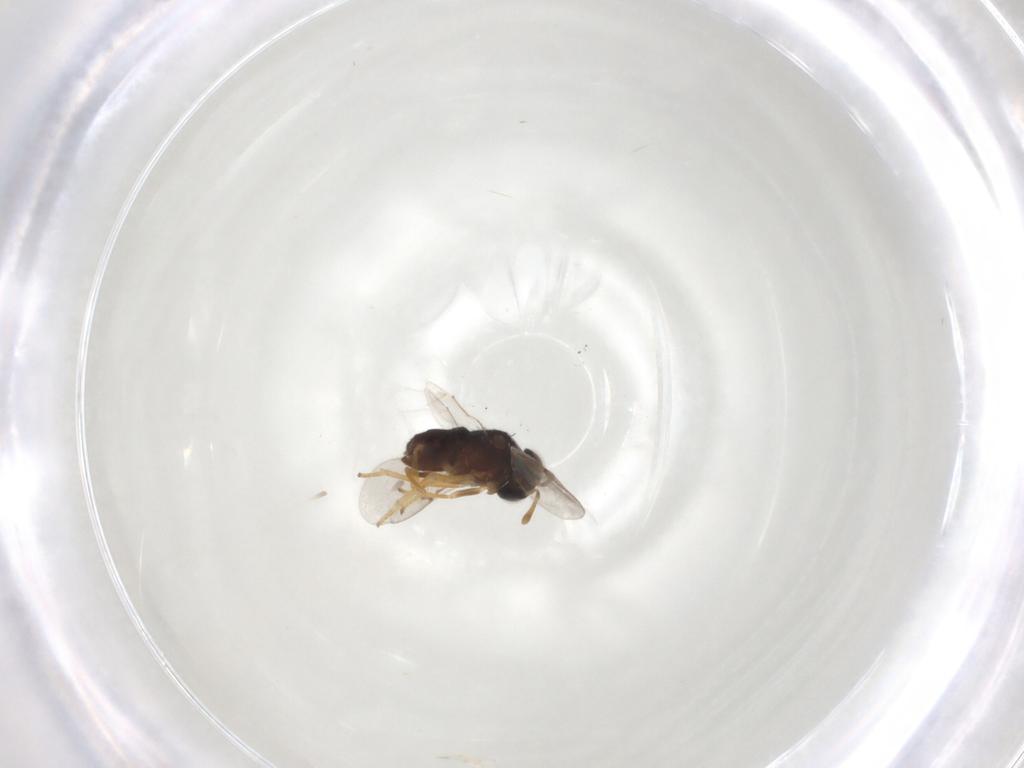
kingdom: Animalia
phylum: Arthropoda
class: Insecta
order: Hymenoptera
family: Encyrtidae
